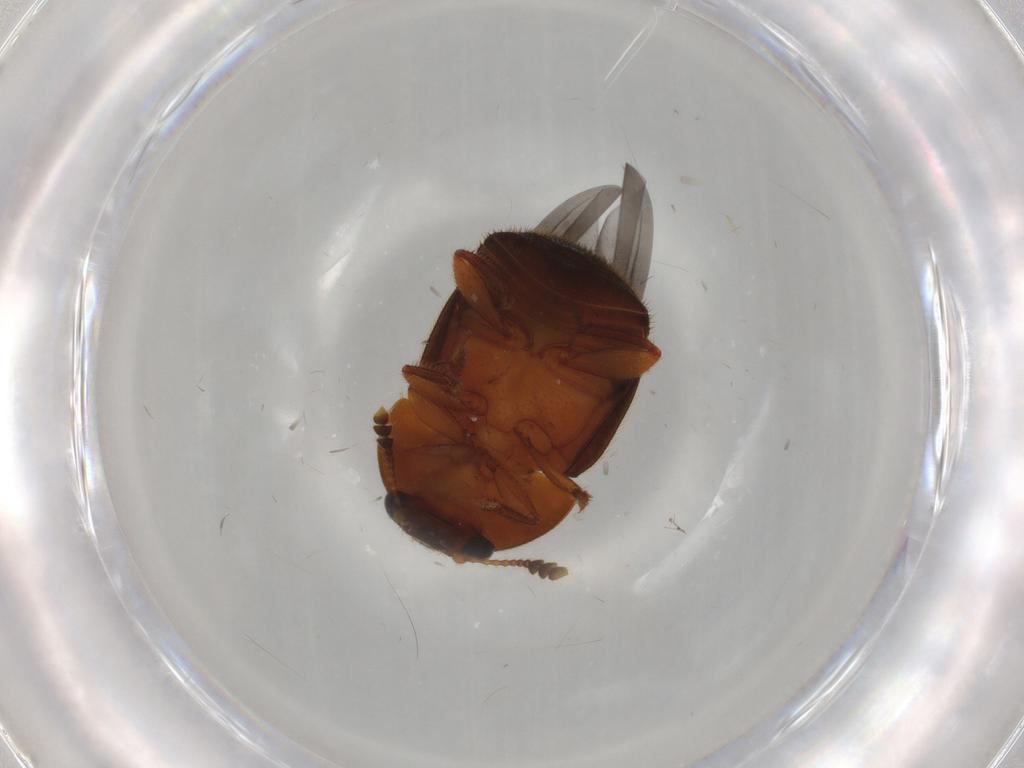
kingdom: Animalia
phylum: Arthropoda
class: Insecta
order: Coleoptera
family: Nitidulidae
